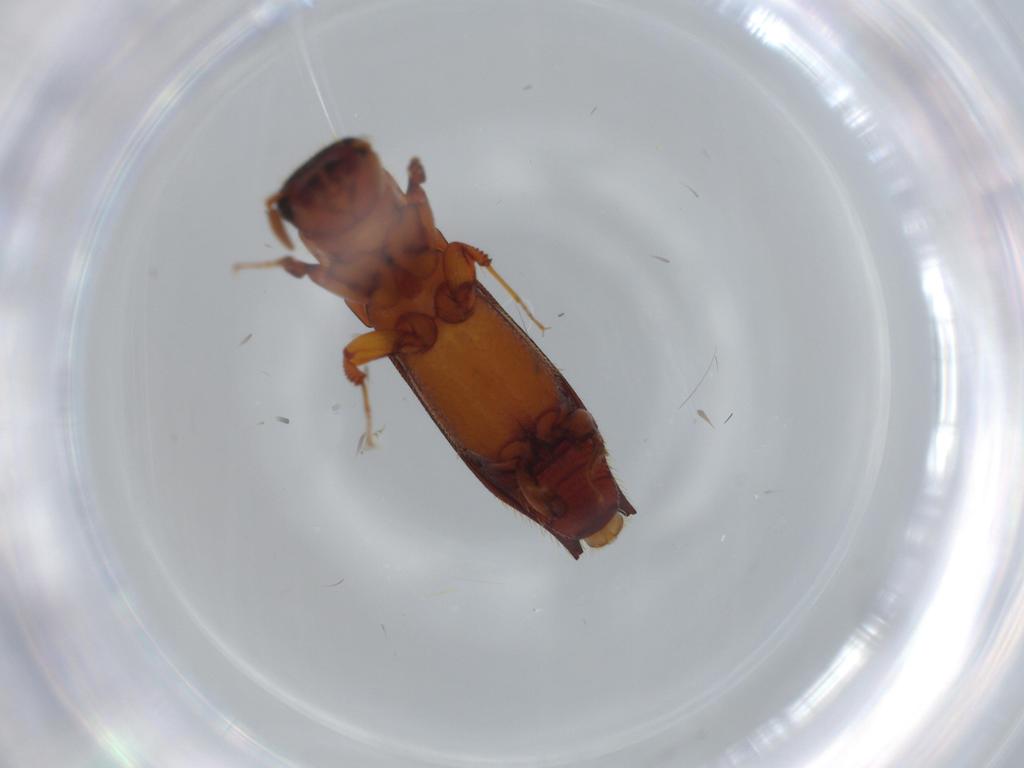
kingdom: Animalia
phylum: Arthropoda
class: Insecta
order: Coleoptera
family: Curculionidae
